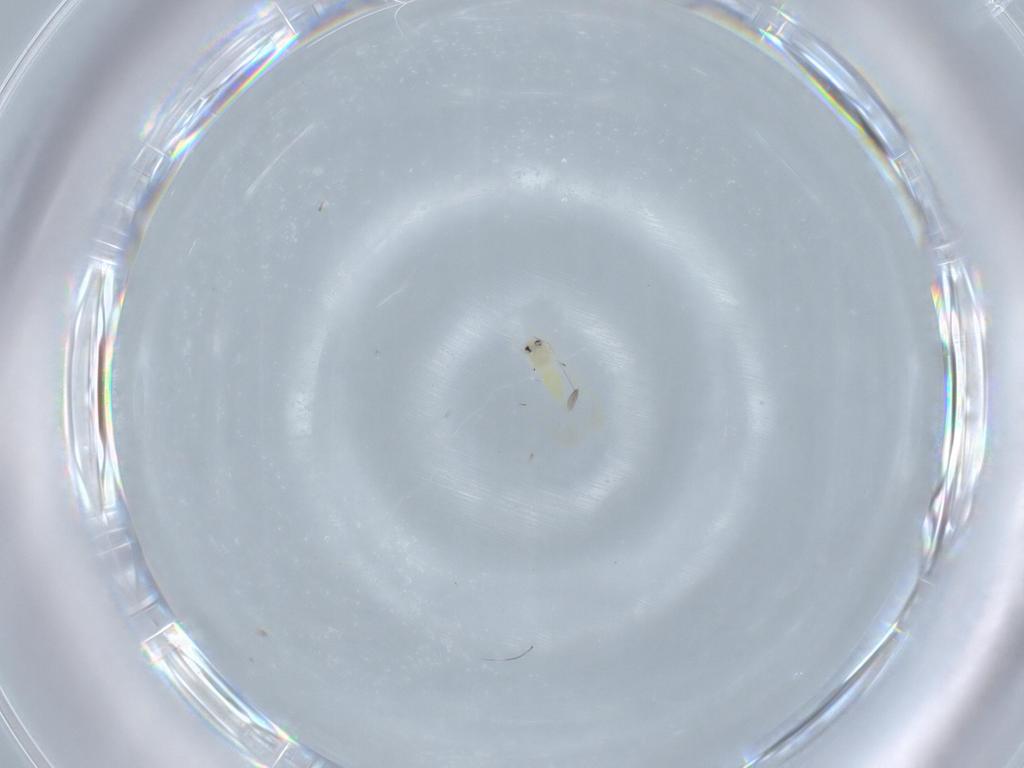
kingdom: Animalia
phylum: Arthropoda
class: Insecta
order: Hemiptera
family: Aleyrodidae
